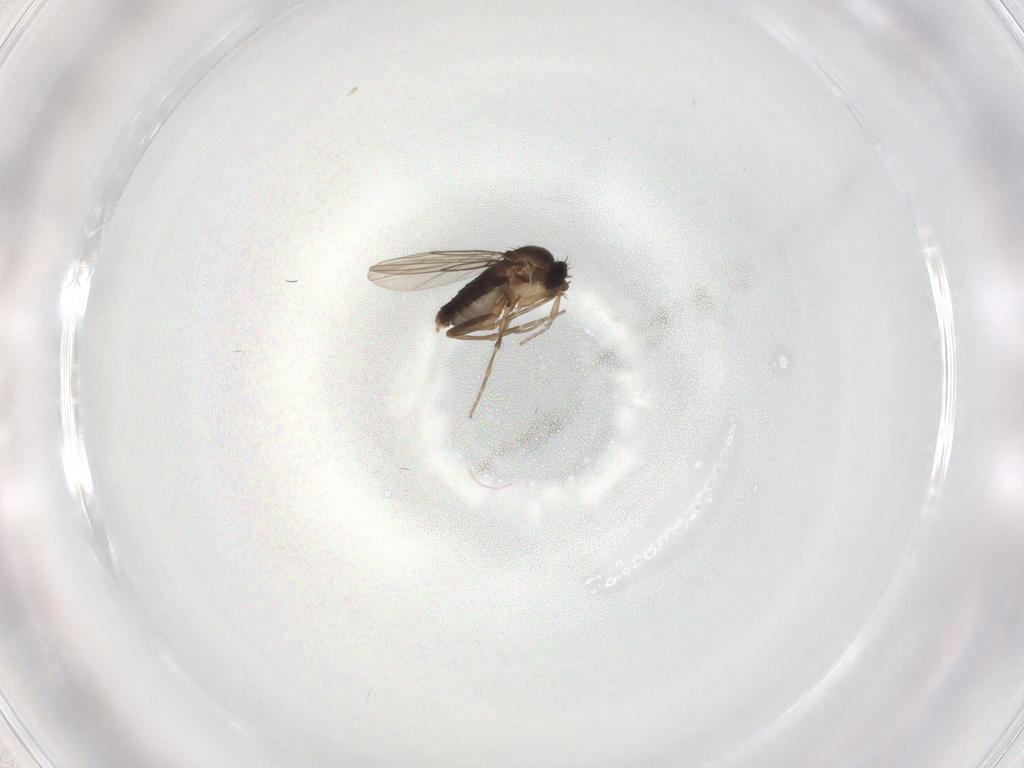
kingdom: Animalia
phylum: Arthropoda
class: Insecta
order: Diptera
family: Phoridae
